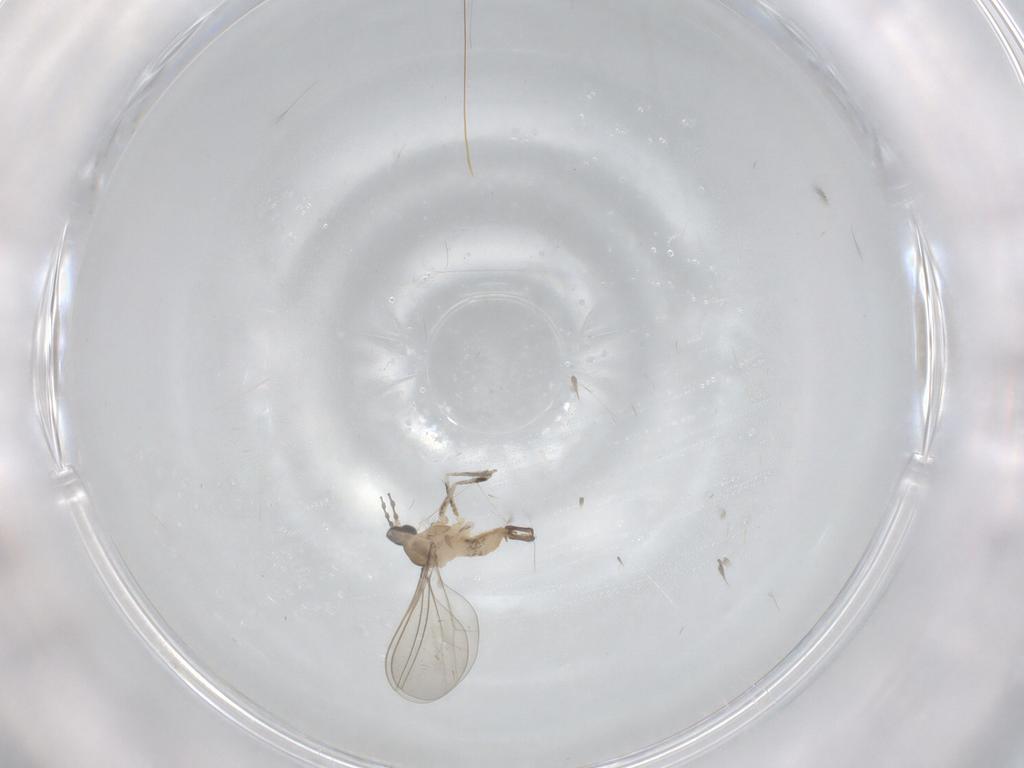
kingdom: Animalia
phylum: Arthropoda
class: Insecta
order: Diptera
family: Cecidomyiidae
